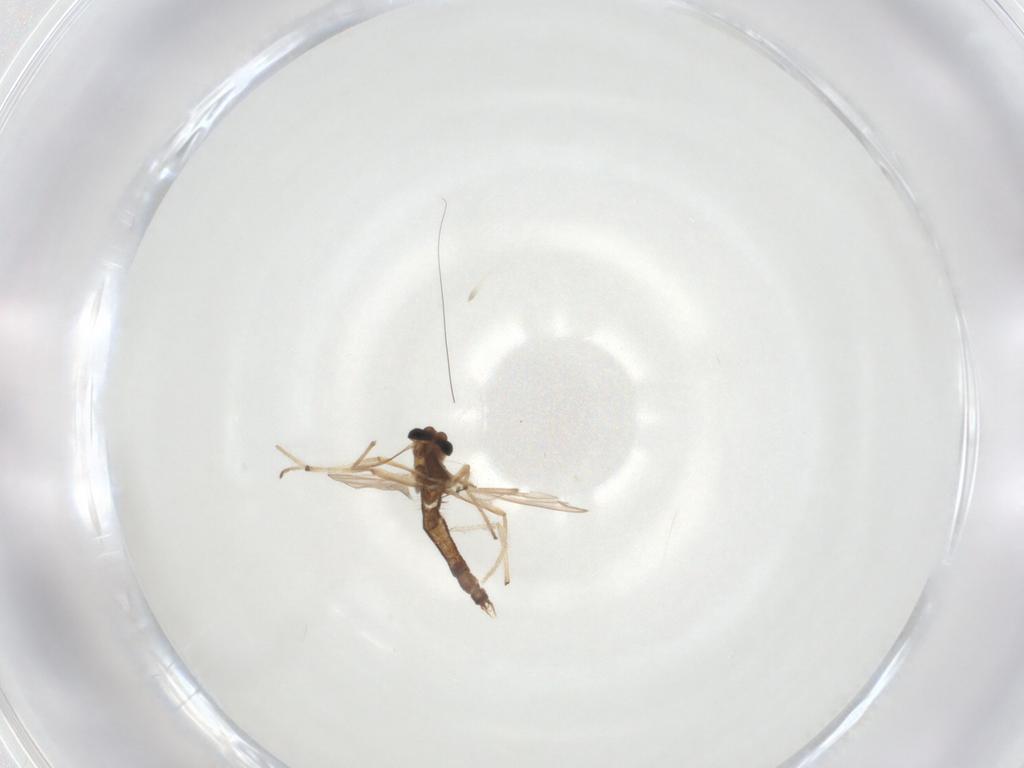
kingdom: Animalia
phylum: Arthropoda
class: Insecta
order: Diptera
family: Chironomidae
